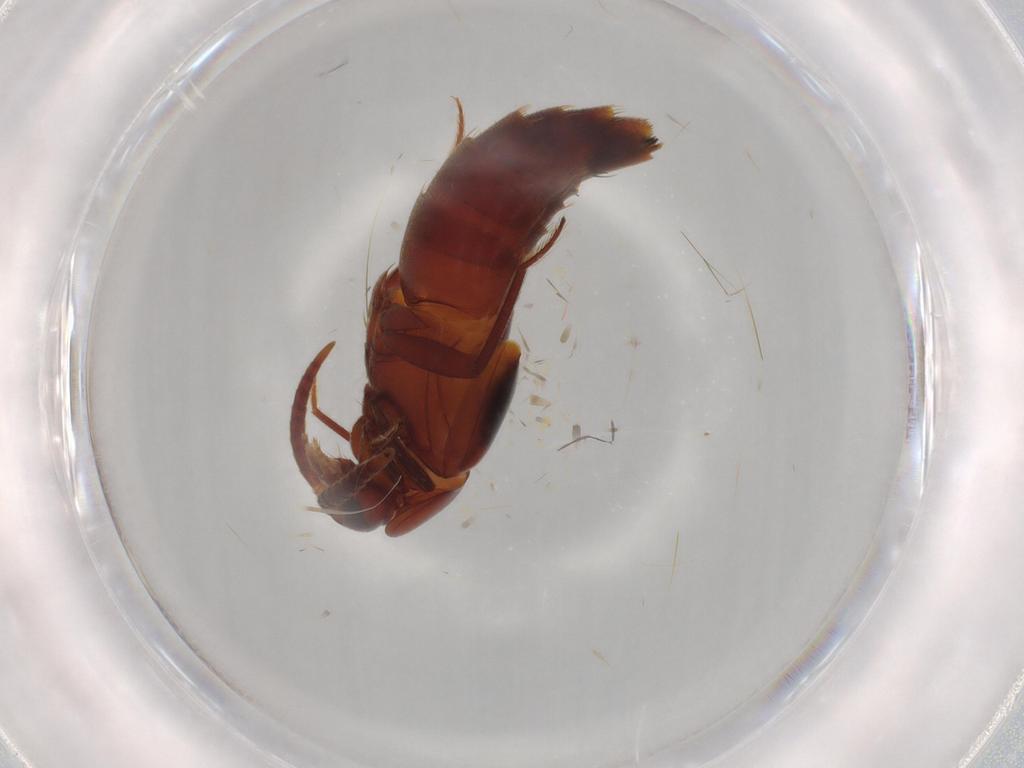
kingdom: Animalia
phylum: Arthropoda
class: Insecta
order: Coleoptera
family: Staphylinidae
